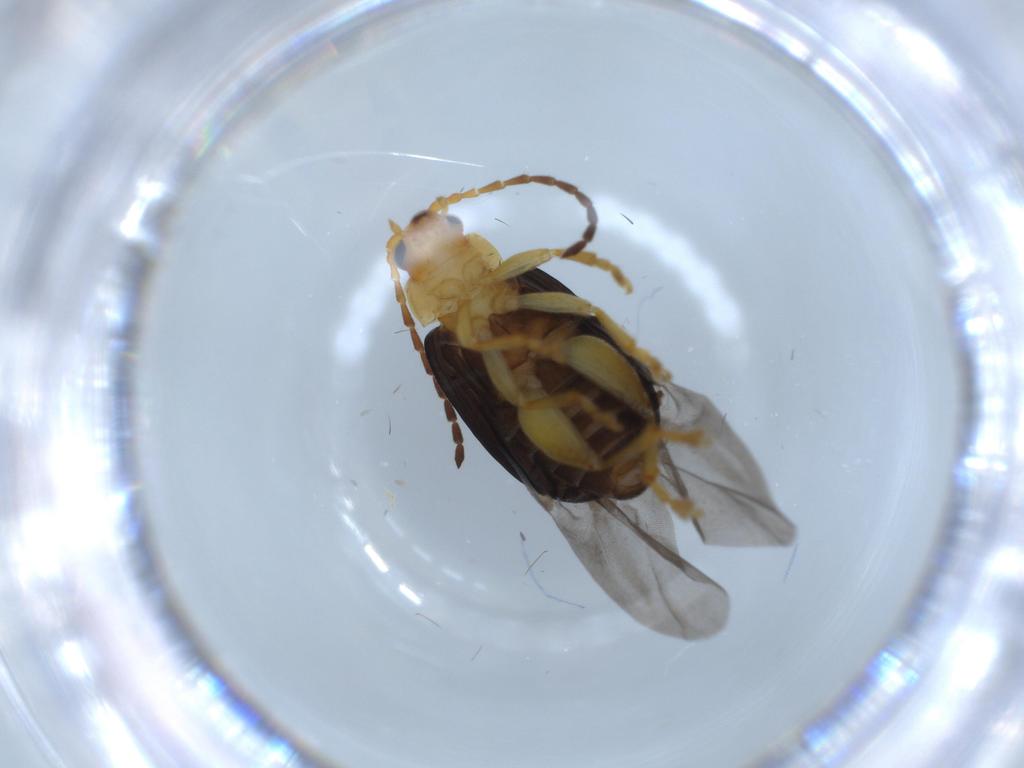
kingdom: Animalia
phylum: Arthropoda
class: Insecta
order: Coleoptera
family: Chrysomelidae
